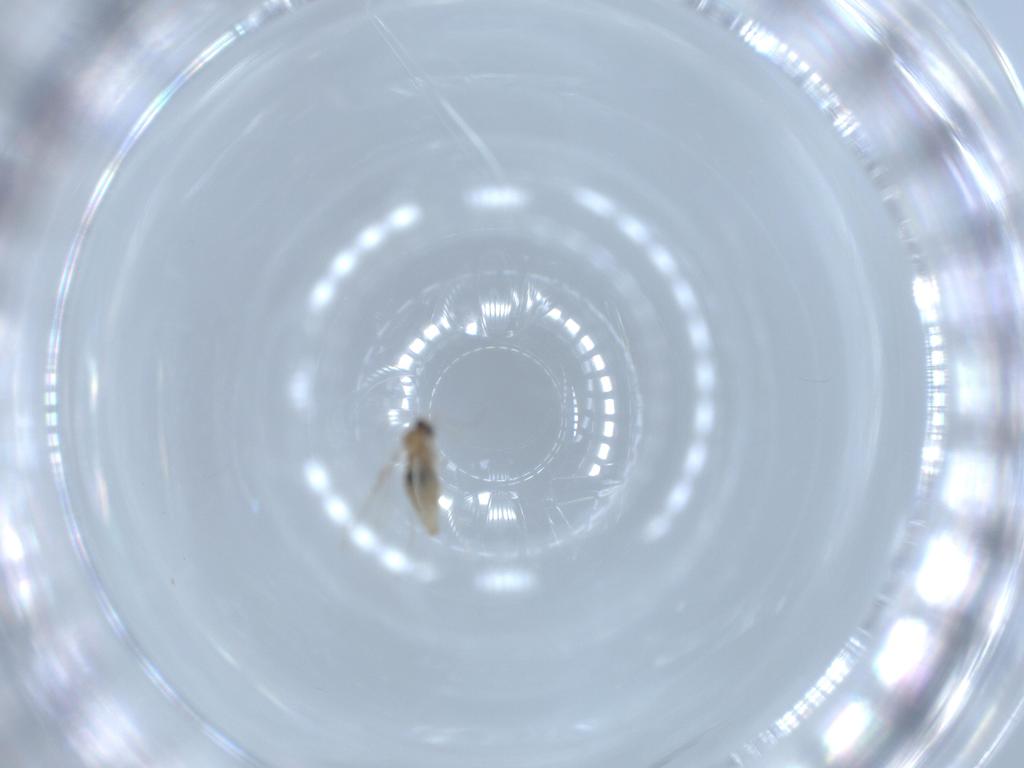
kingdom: Animalia
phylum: Arthropoda
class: Insecta
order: Diptera
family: Cecidomyiidae
